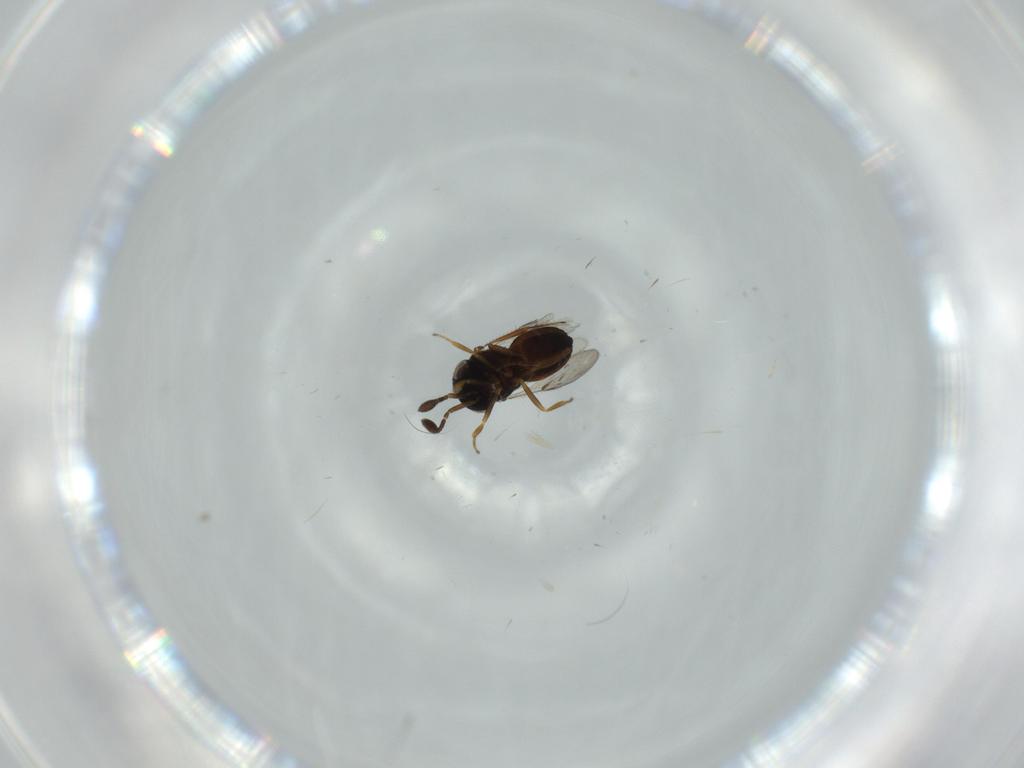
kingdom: Animalia
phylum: Arthropoda
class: Insecta
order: Hymenoptera
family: Scelionidae
